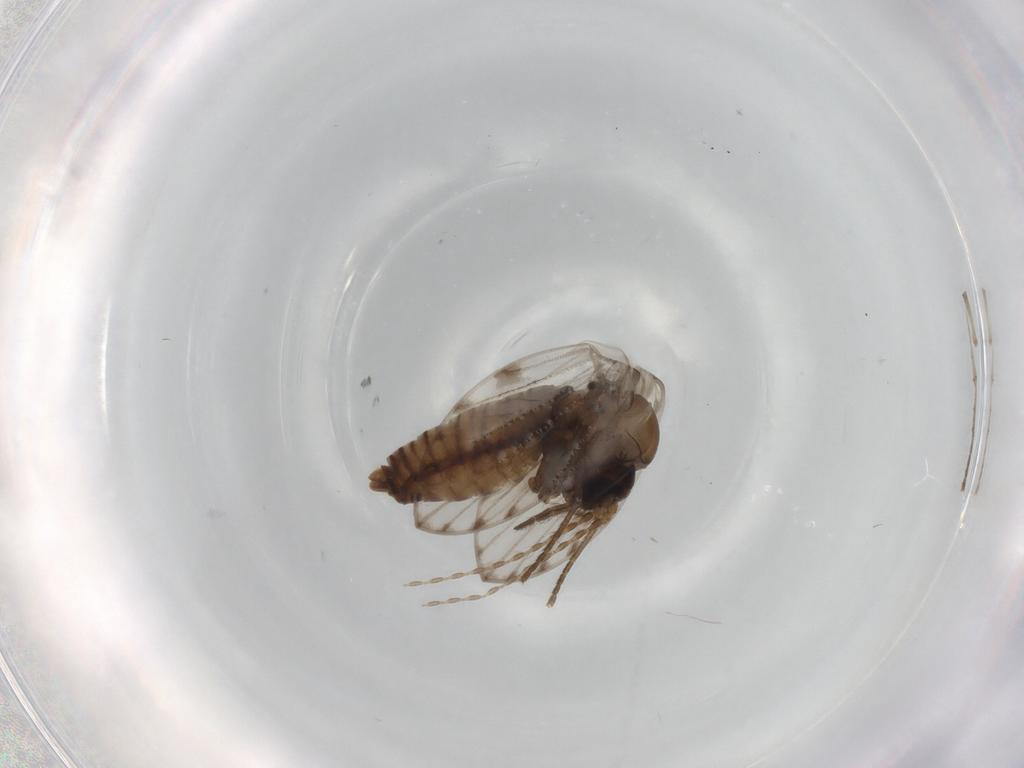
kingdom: Animalia
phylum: Arthropoda
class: Insecta
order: Diptera
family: Psychodidae
